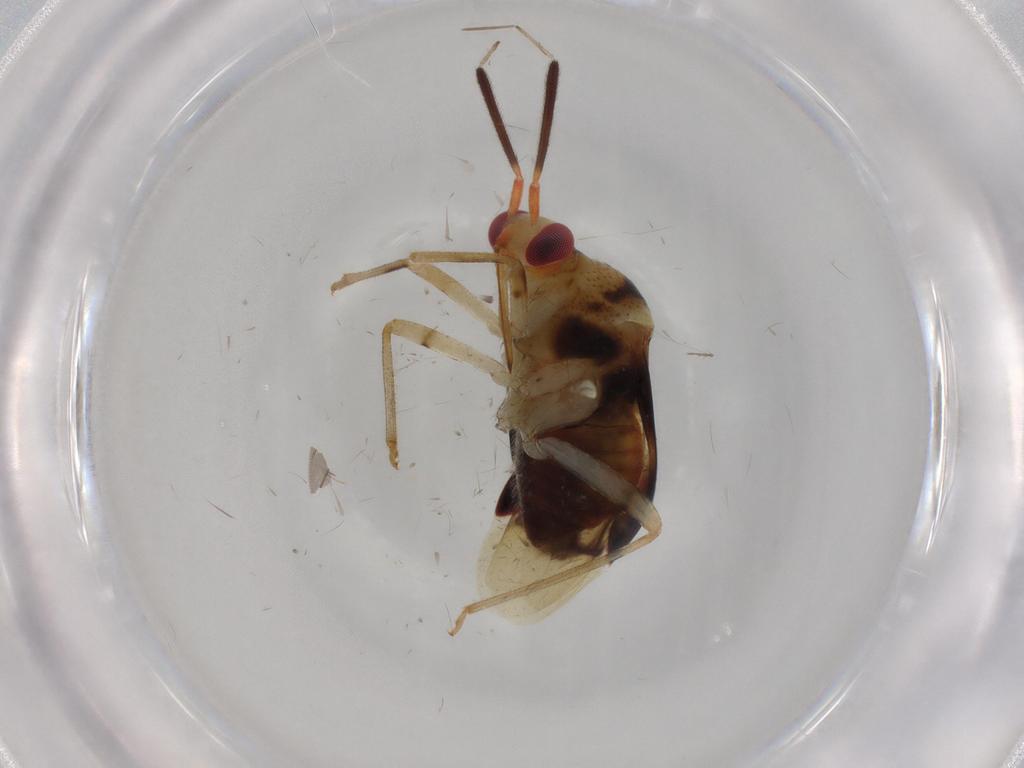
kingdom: Animalia
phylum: Arthropoda
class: Insecta
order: Hemiptera
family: Miridae
